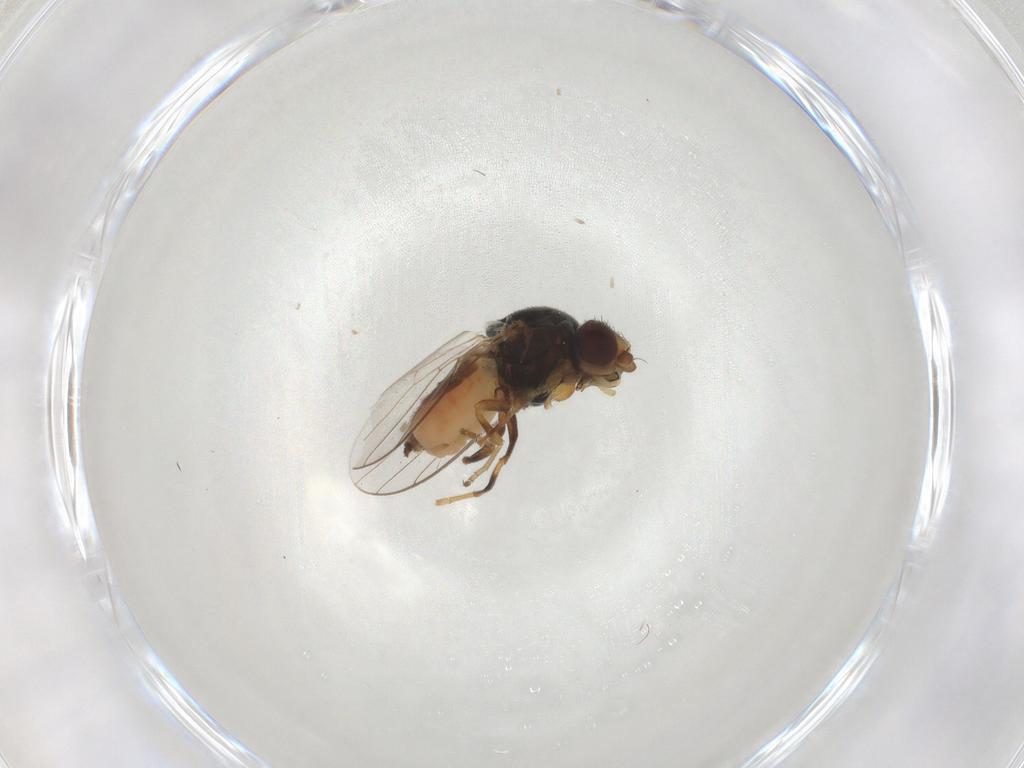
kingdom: Animalia
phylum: Arthropoda
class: Insecta
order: Diptera
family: Chloropidae
